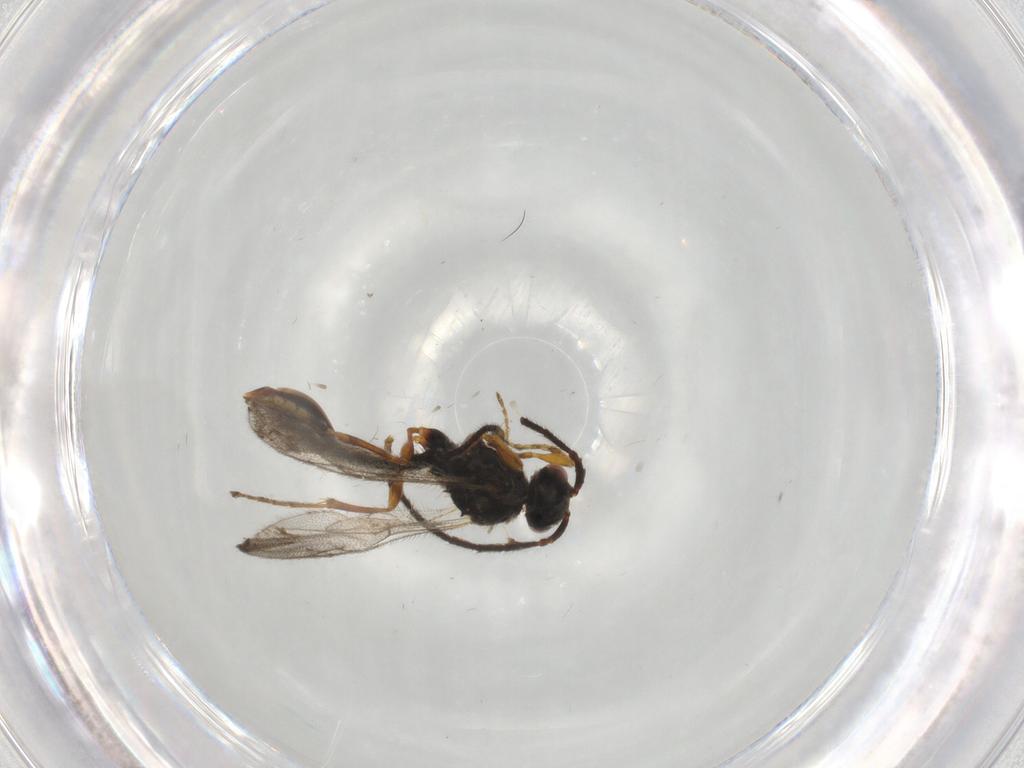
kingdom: Animalia
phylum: Arthropoda
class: Insecta
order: Hymenoptera
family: Diapriidae
